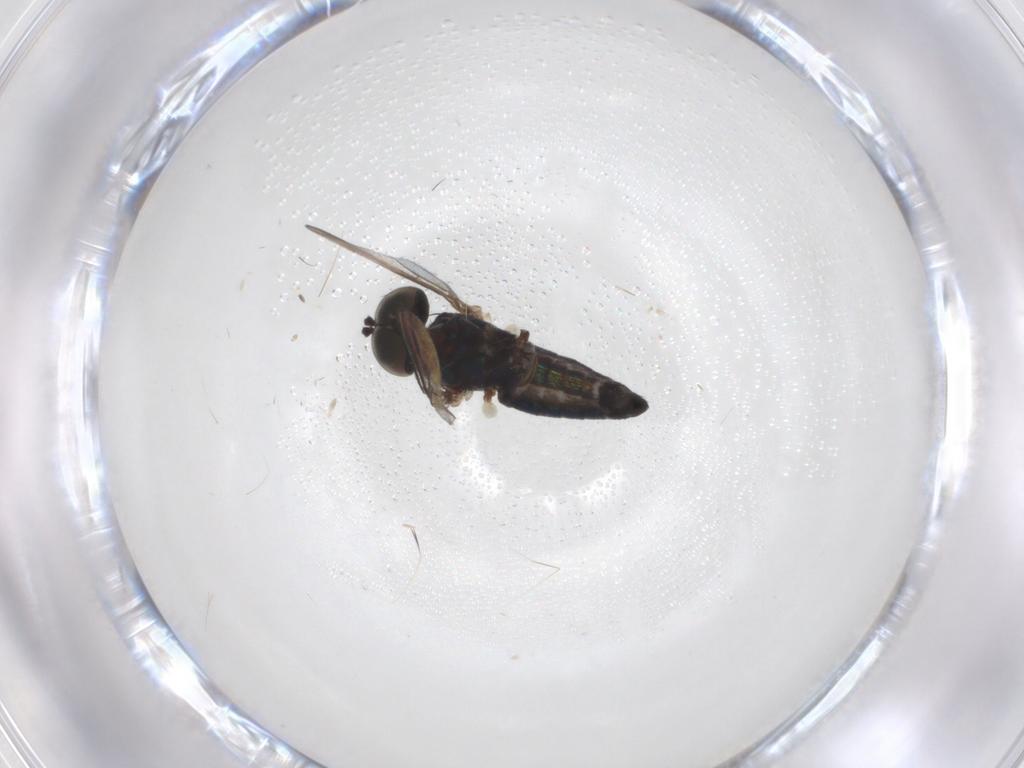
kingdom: Animalia
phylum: Arthropoda
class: Insecta
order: Diptera
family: Dolichopodidae
